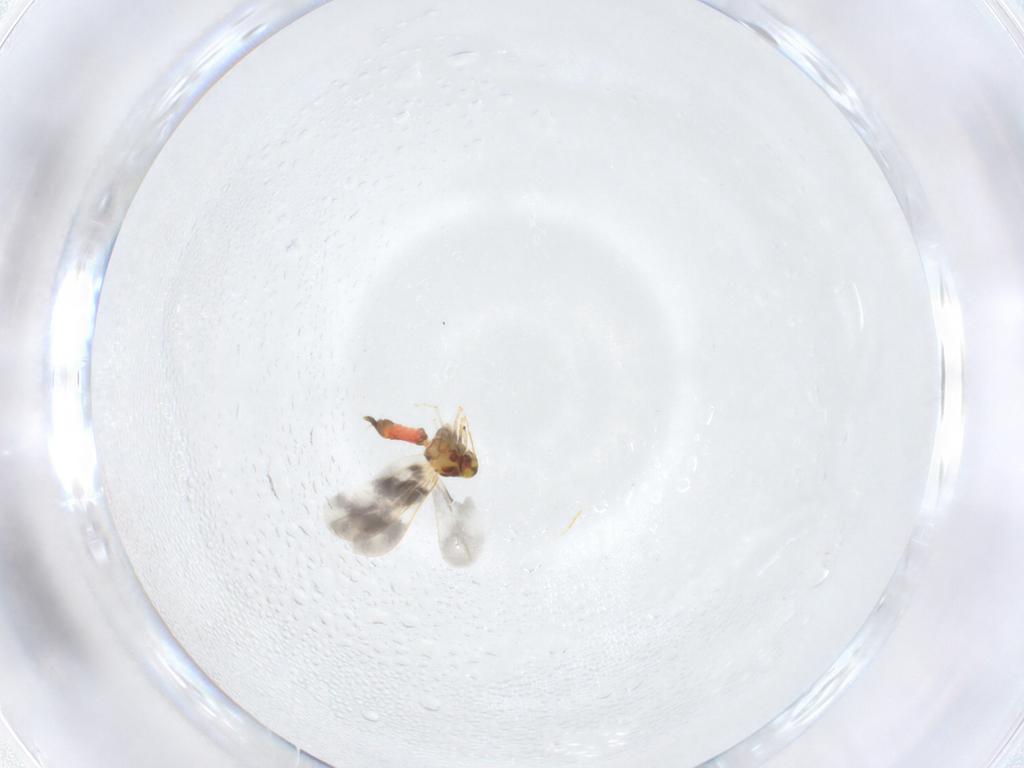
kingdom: Animalia
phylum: Arthropoda
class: Insecta
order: Hemiptera
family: Aleyrodidae
